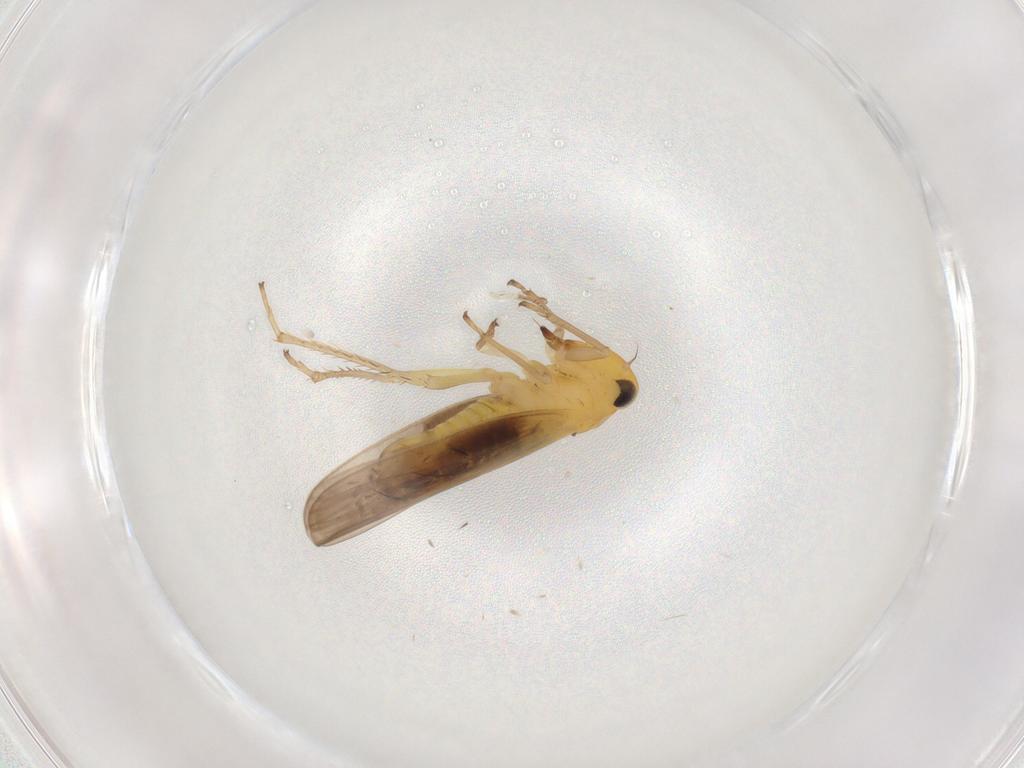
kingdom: Animalia
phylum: Arthropoda
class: Insecta
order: Hemiptera
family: Cicadellidae
